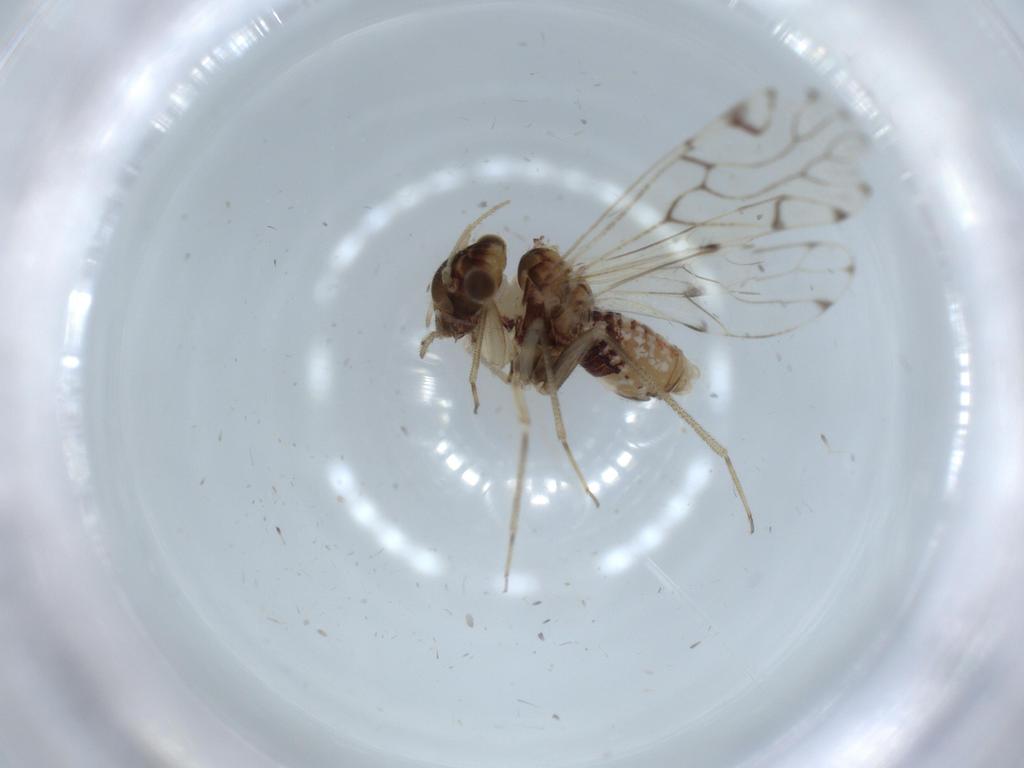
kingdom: Animalia
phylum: Arthropoda
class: Insecta
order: Psocodea
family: Epipsocidae
